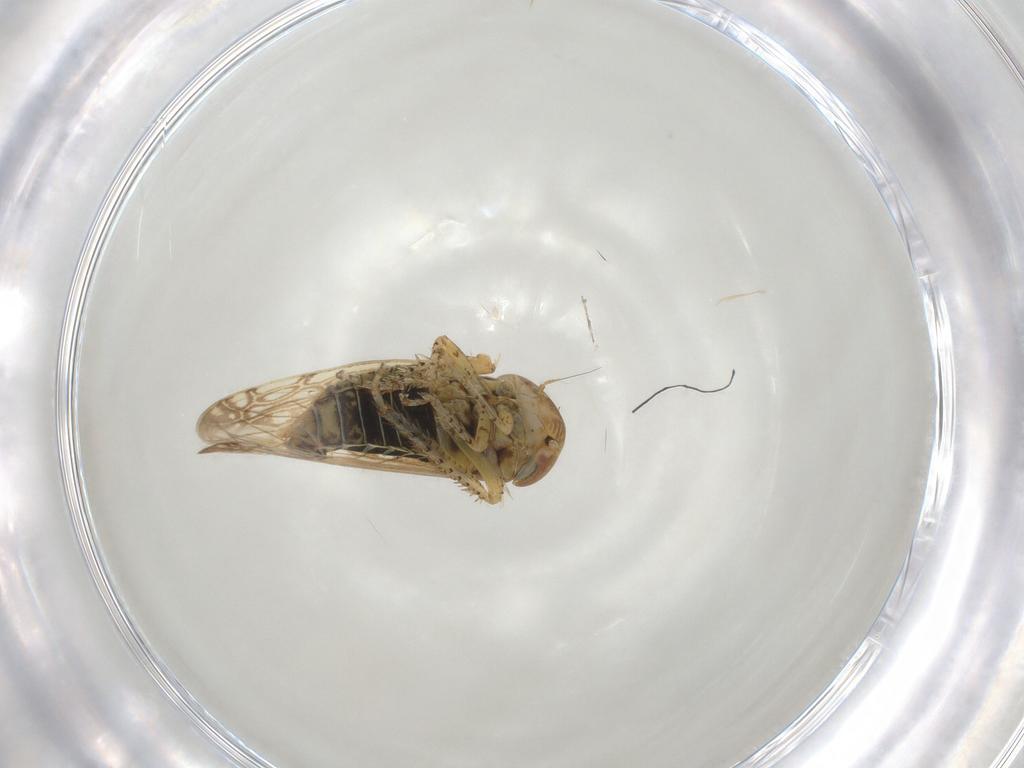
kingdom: Animalia
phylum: Arthropoda
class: Insecta
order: Hemiptera
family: Cicadellidae
